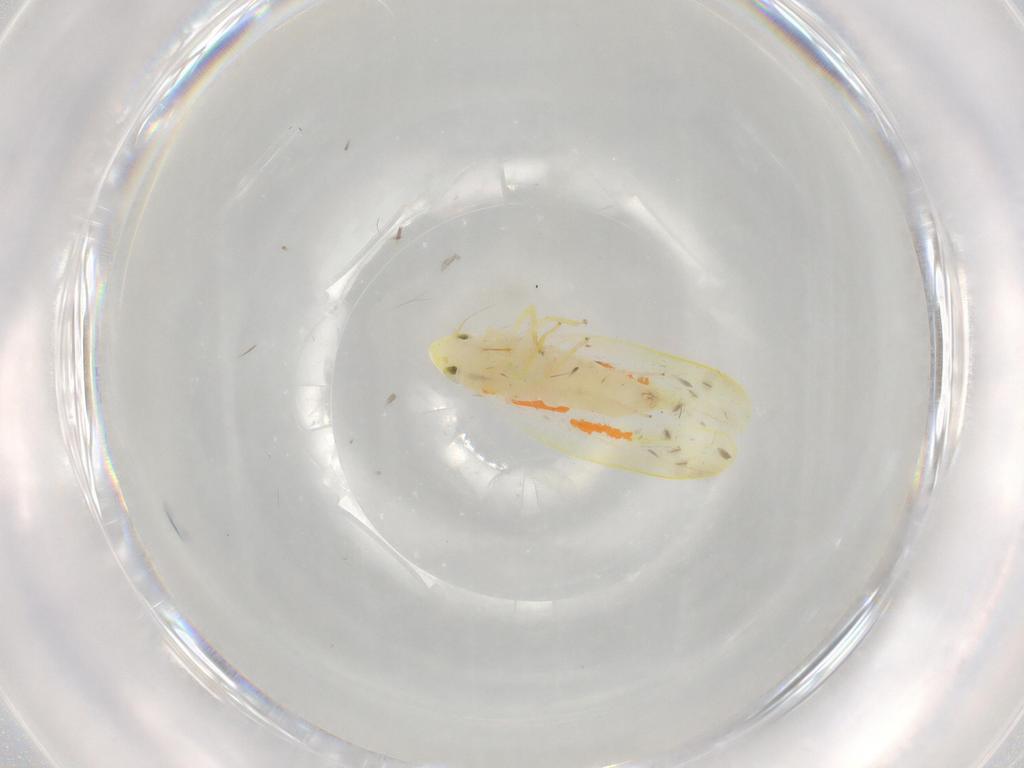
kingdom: Animalia
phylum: Arthropoda
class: Insecta
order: Hemiptera
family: Cicadellidae
